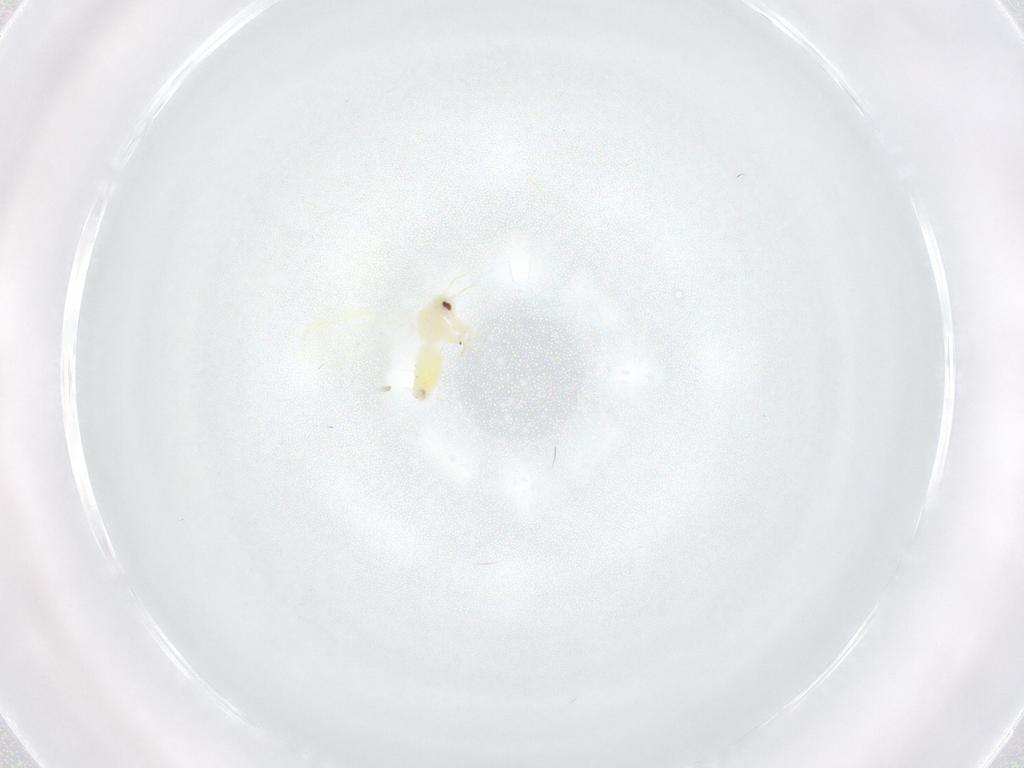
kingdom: Animalia
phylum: Arthropoda
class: Insecta
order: Hemiptera
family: Aleyrodidae
